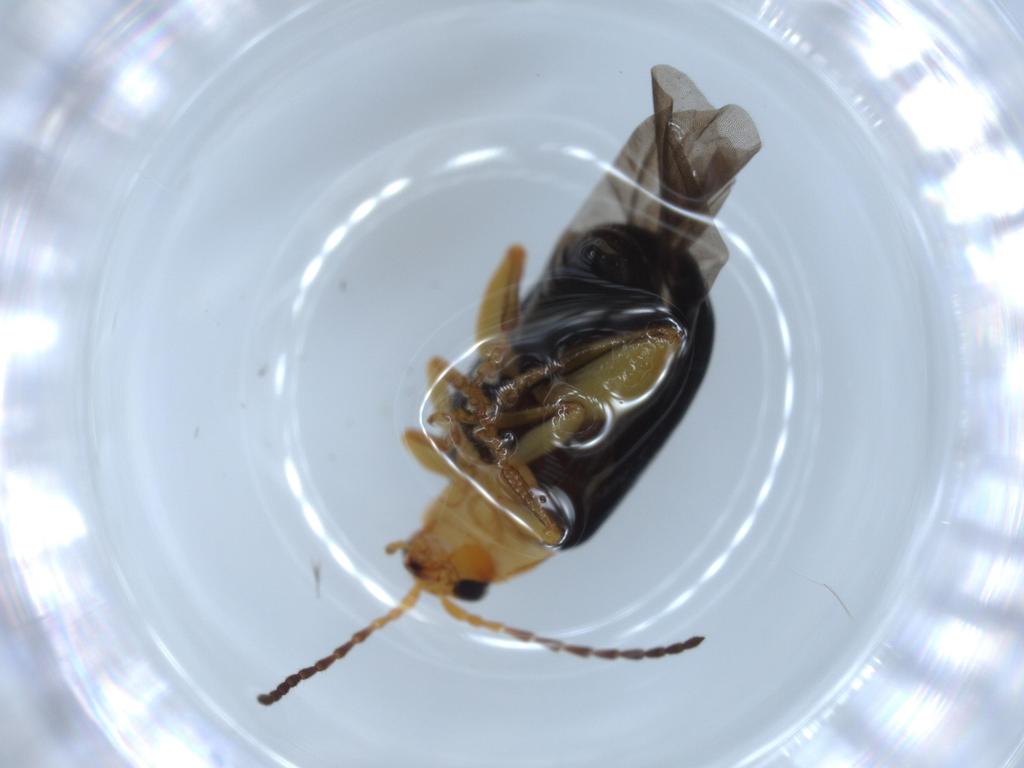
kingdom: Animalia
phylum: Arthropoda
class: Insecta
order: Coleoptera
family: Chrysomelidae
